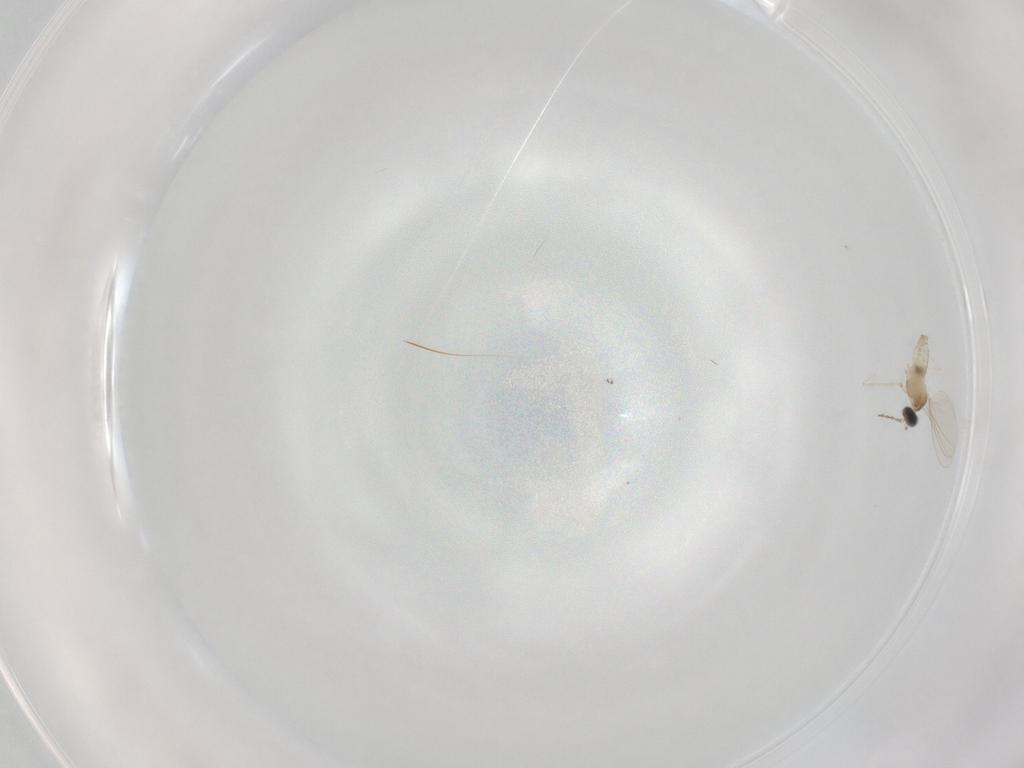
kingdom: Animalia
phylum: Arthropoda
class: Insecta
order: Diptera
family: Cecidomyiidae
